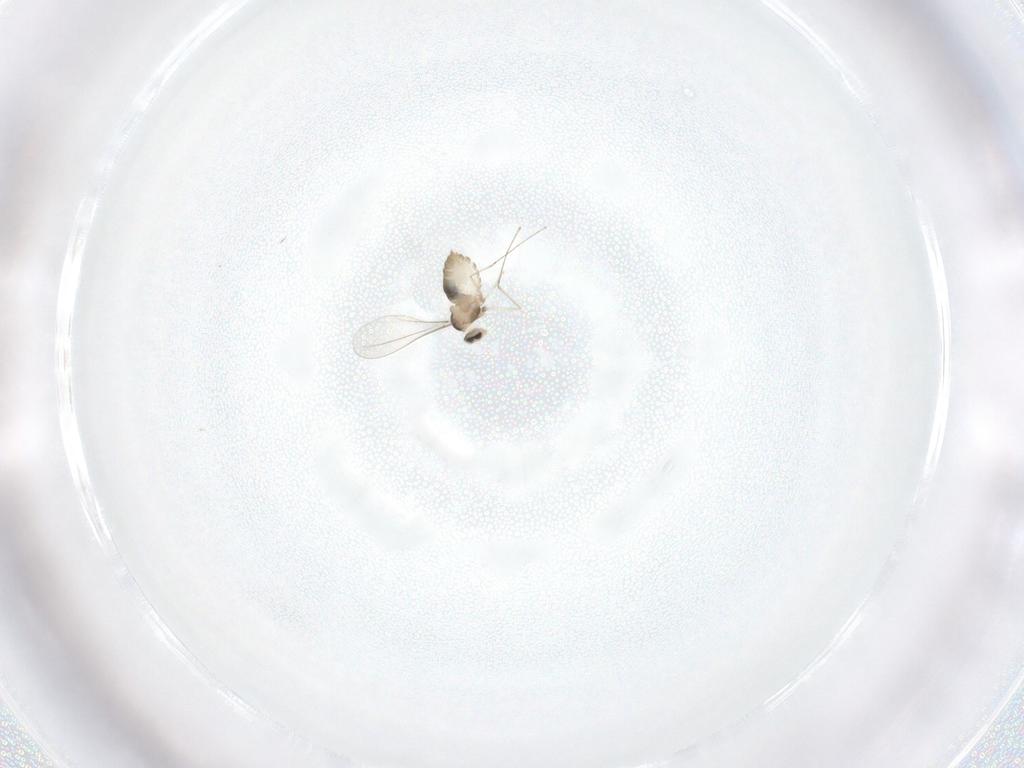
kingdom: Animalia
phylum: Arthropoda
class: Insecta
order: Diptera
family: Cecidomyiidae
